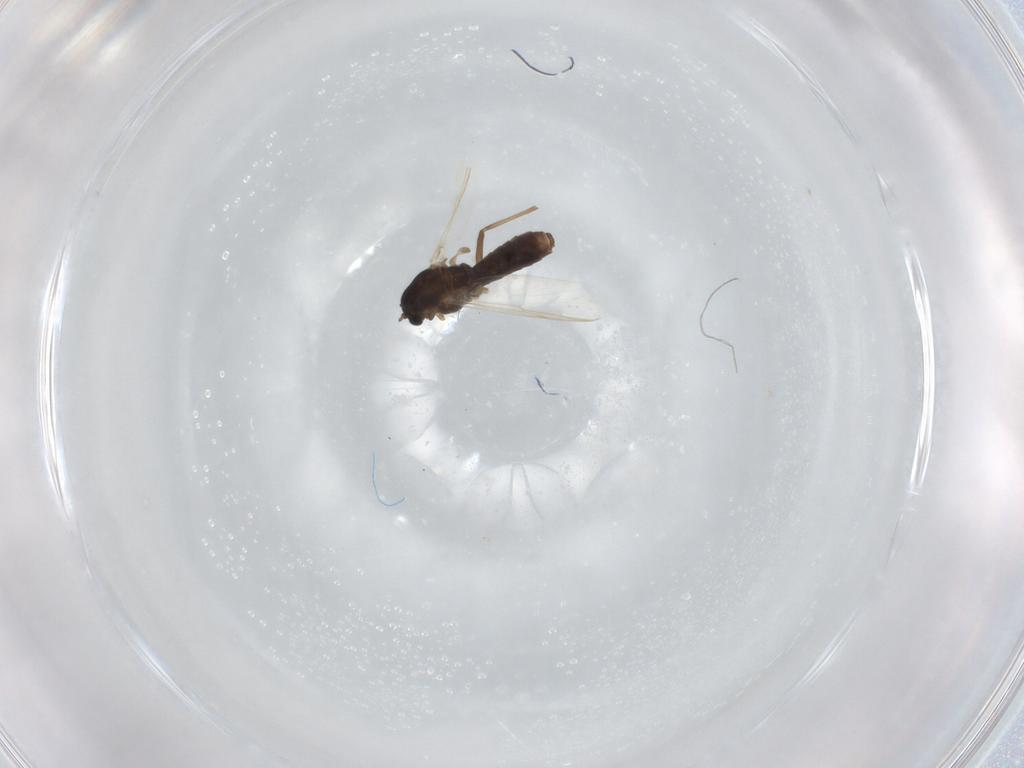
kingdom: Animalia
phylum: Arthropoda
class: Insecta
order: Diptera
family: Chironomidae
